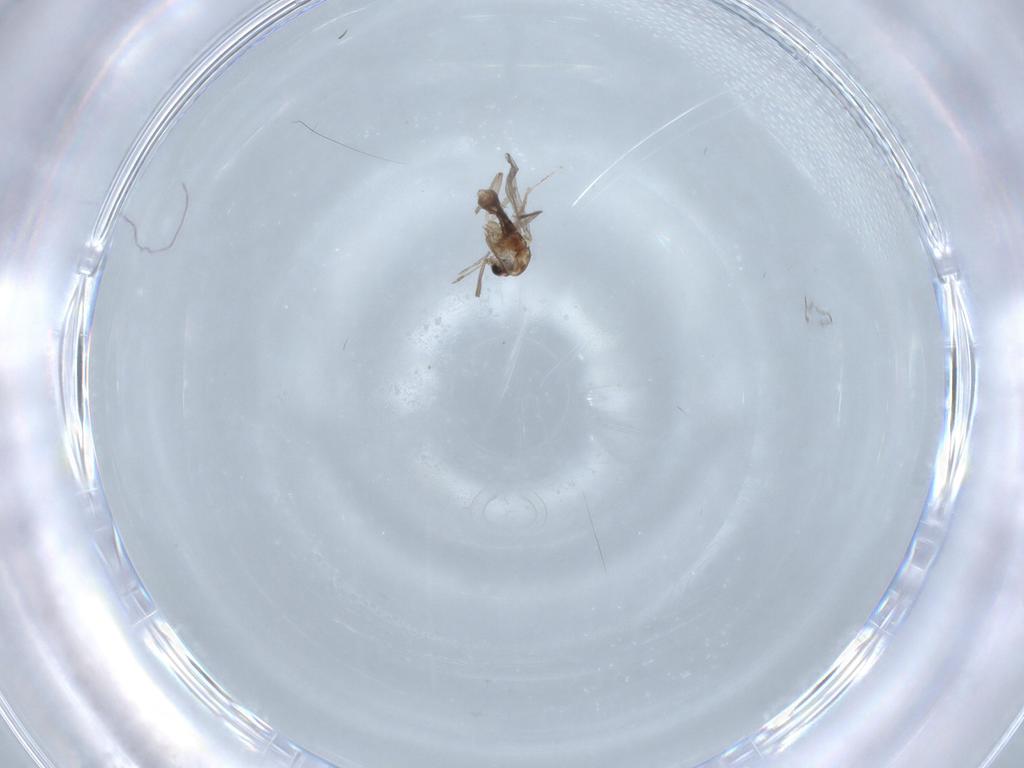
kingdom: Animalia
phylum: Arthropoda
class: Insecta
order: Diptera
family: Chironomidae
